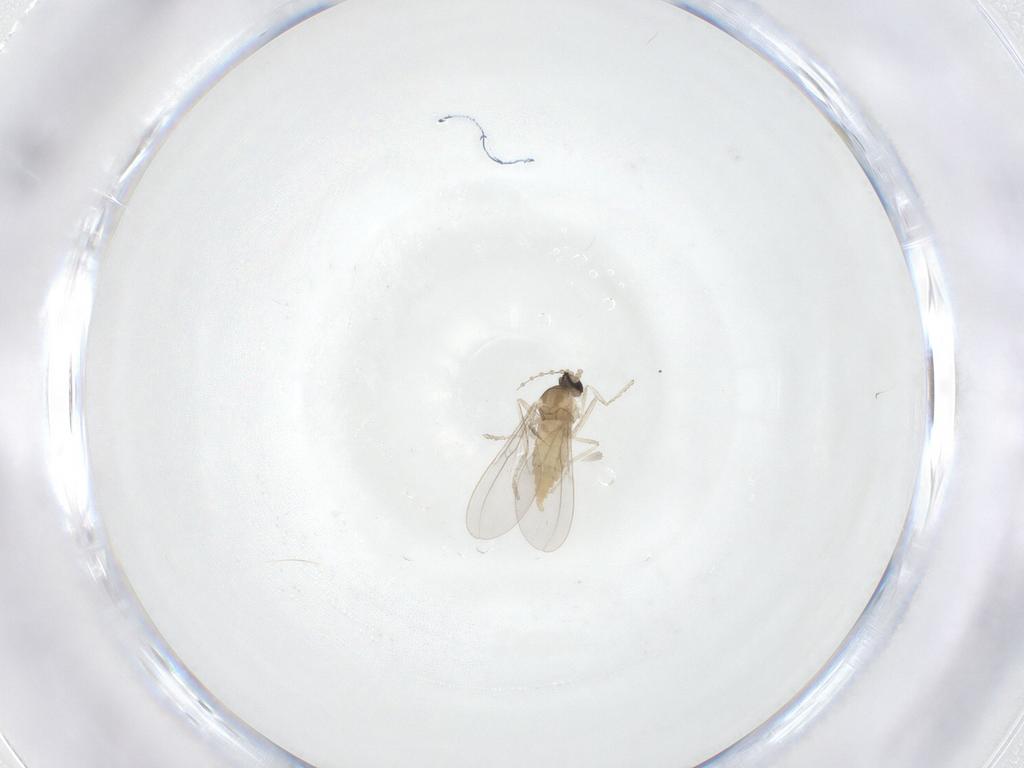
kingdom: Animalia
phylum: Arthropoda
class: Insecta
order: Diptera
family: Cecidomyiidae
